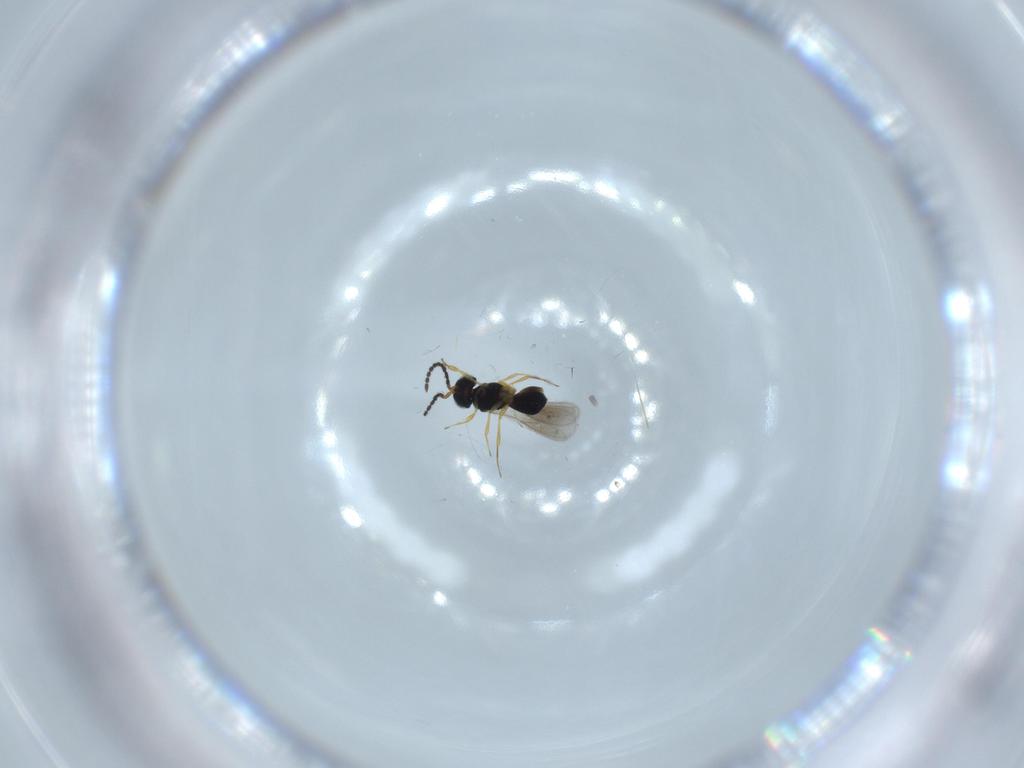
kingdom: Animalia
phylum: Arthropoda
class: Insecta
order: Hymenoptera
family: Scelionidae
